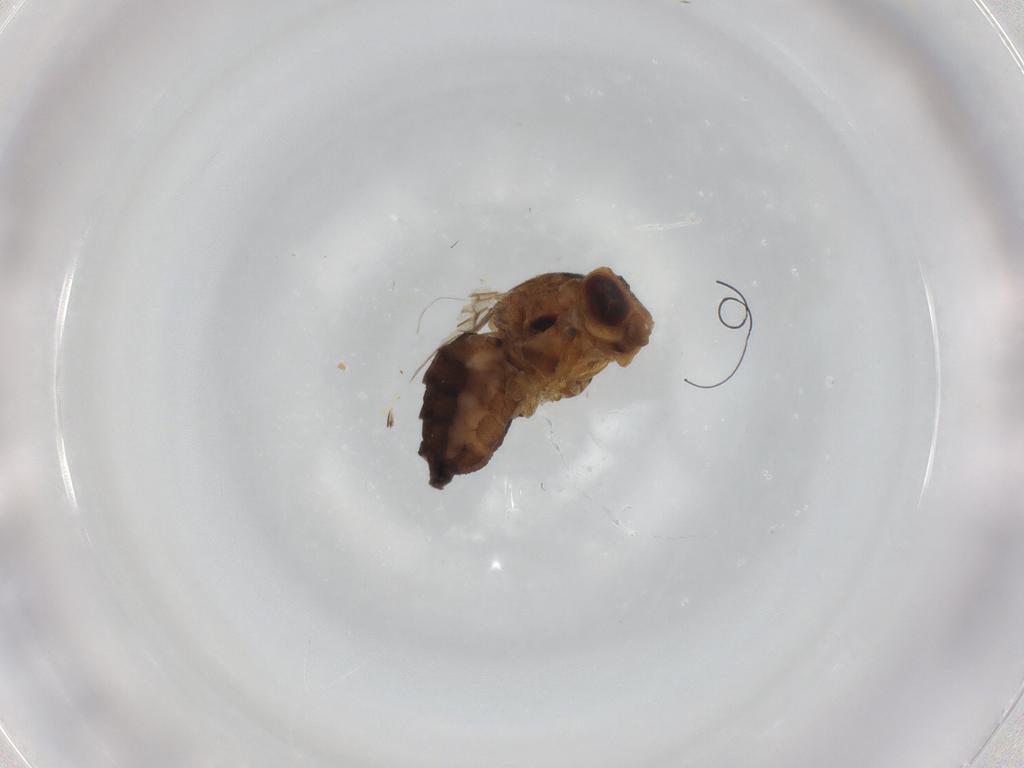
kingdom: Animalia
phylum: Arthropoda
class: Insecta
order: Diptera
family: Chloropidae
